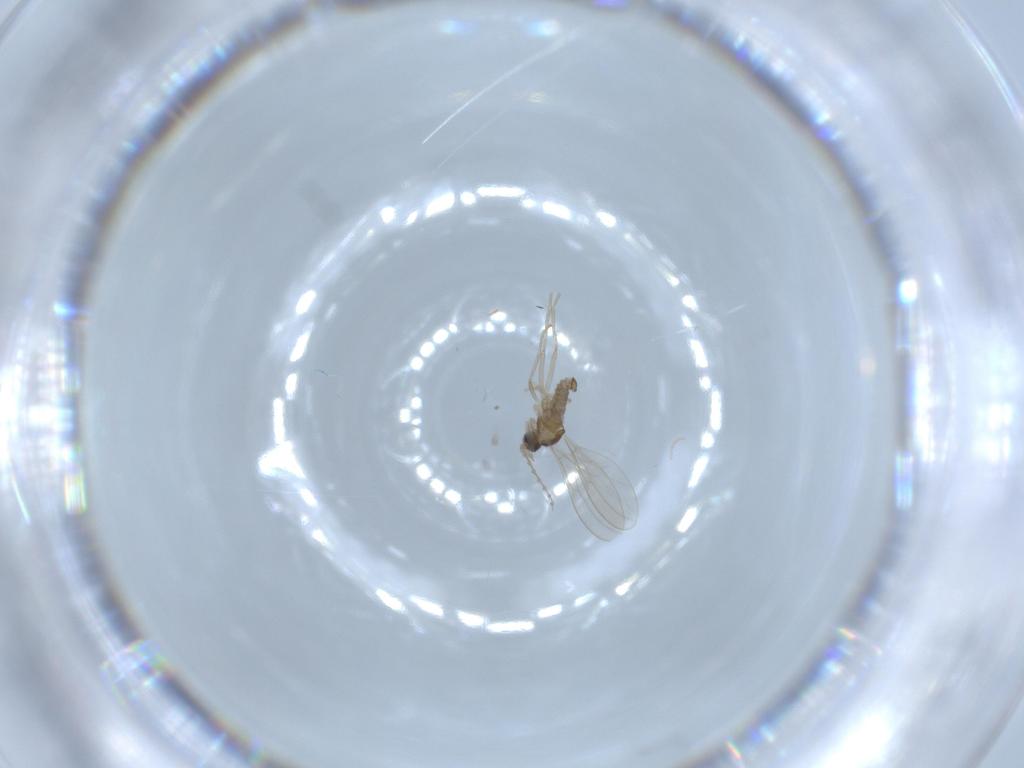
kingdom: Animalia
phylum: Arthropoda
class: Insecta
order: Diptera
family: Cecidomyiidae
